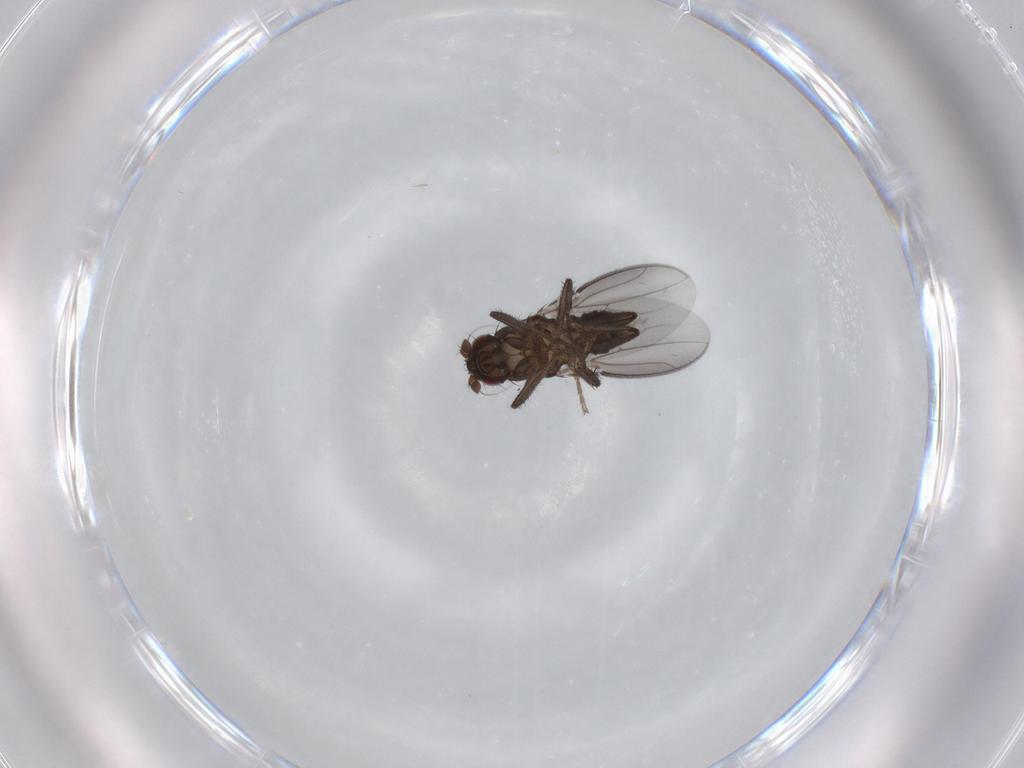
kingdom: Animalia
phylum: Arthropoda
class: Insecta
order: Diptera
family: Sphaeroceridae
